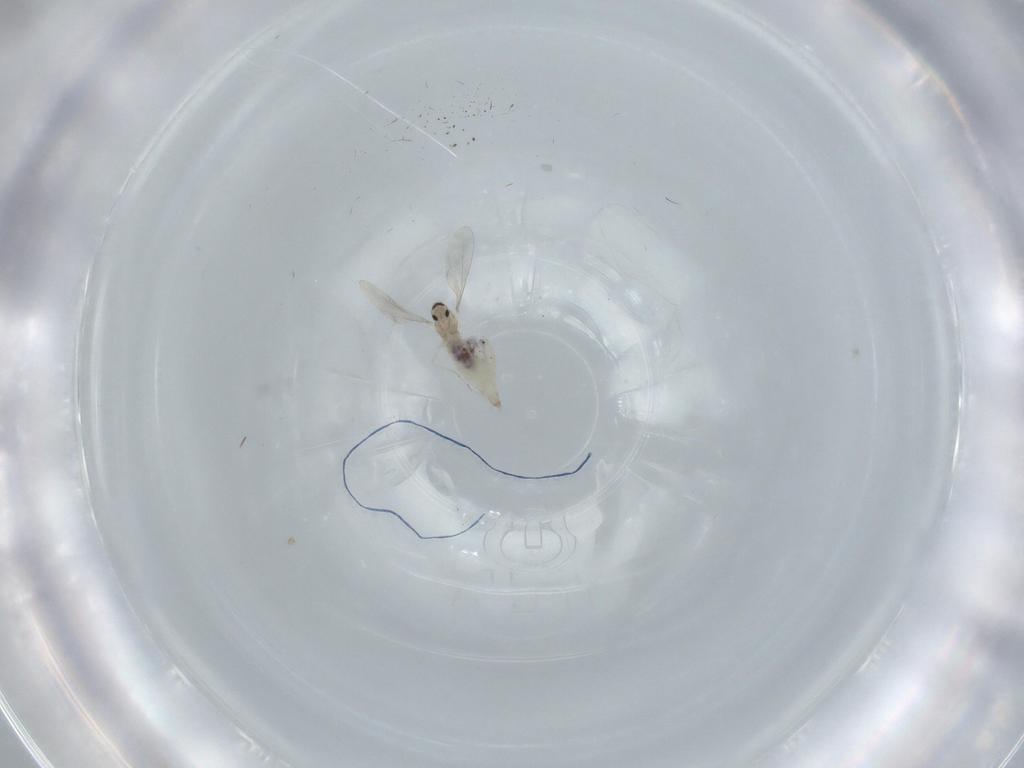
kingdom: Animalia
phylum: Arthropoda
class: Insecta
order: Diptera
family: Cecidomyiidae
